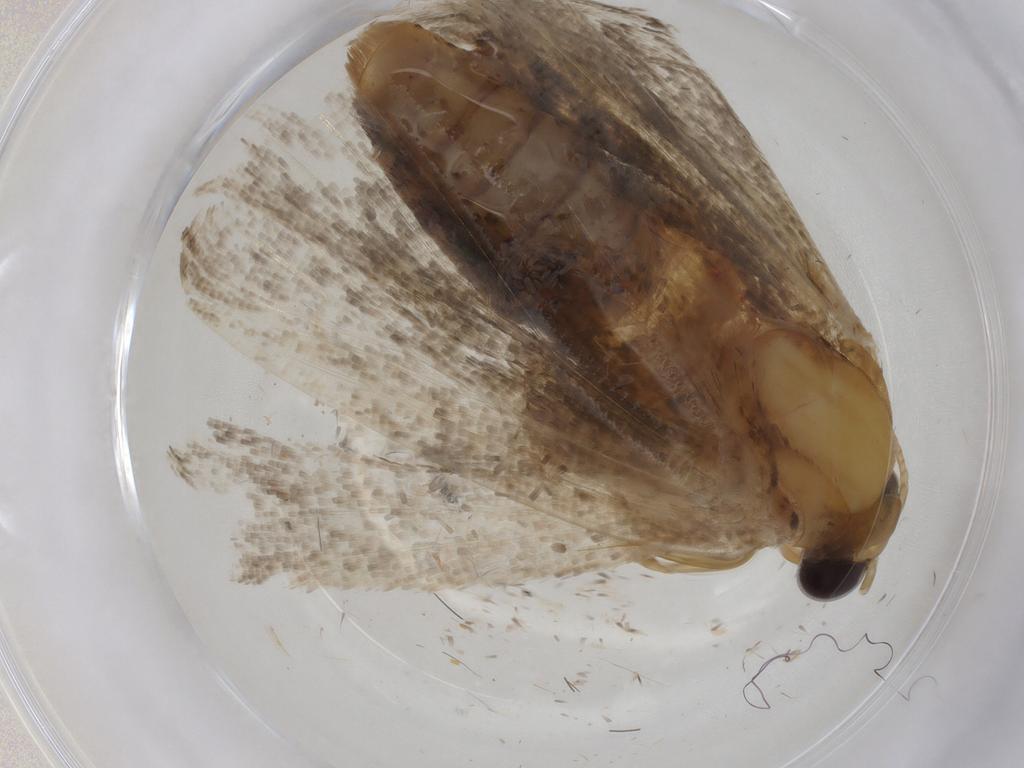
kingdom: Animalia
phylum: Arthropoda
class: Insecta
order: Lepidoptera
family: Erebidae
